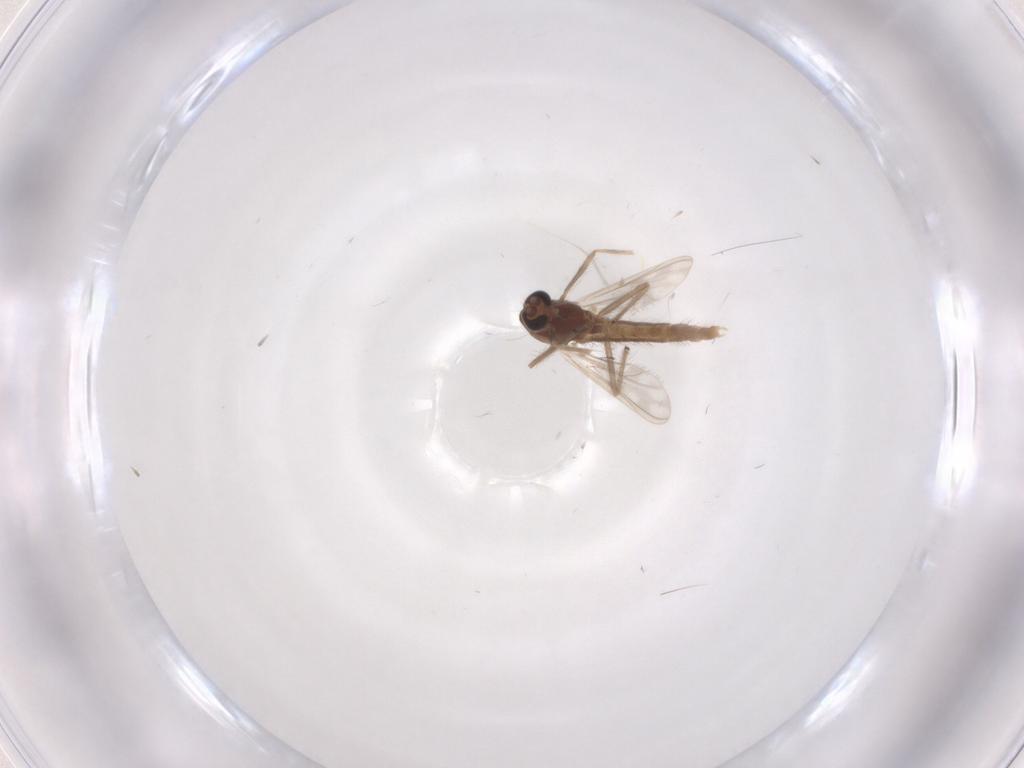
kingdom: Animalia
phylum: Arthropoda
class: Insecta
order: Diptera
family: Chironomidae
